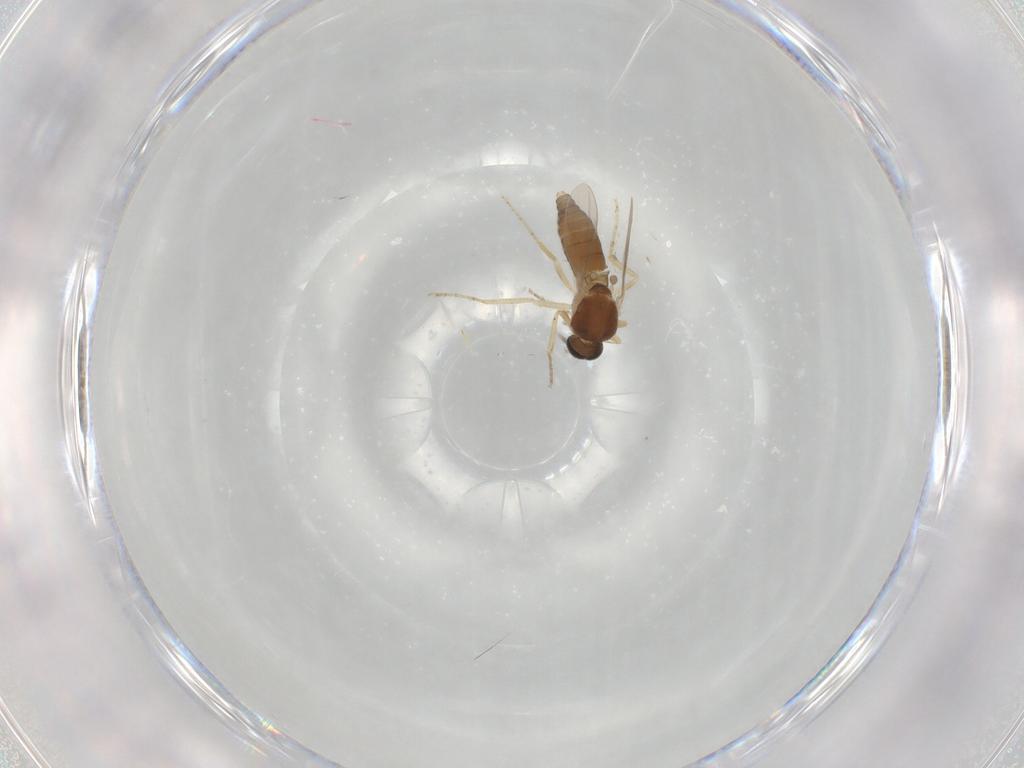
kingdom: Animalia
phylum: Arthropoda
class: Insecta
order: Diptera
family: Ceratopogonidae
